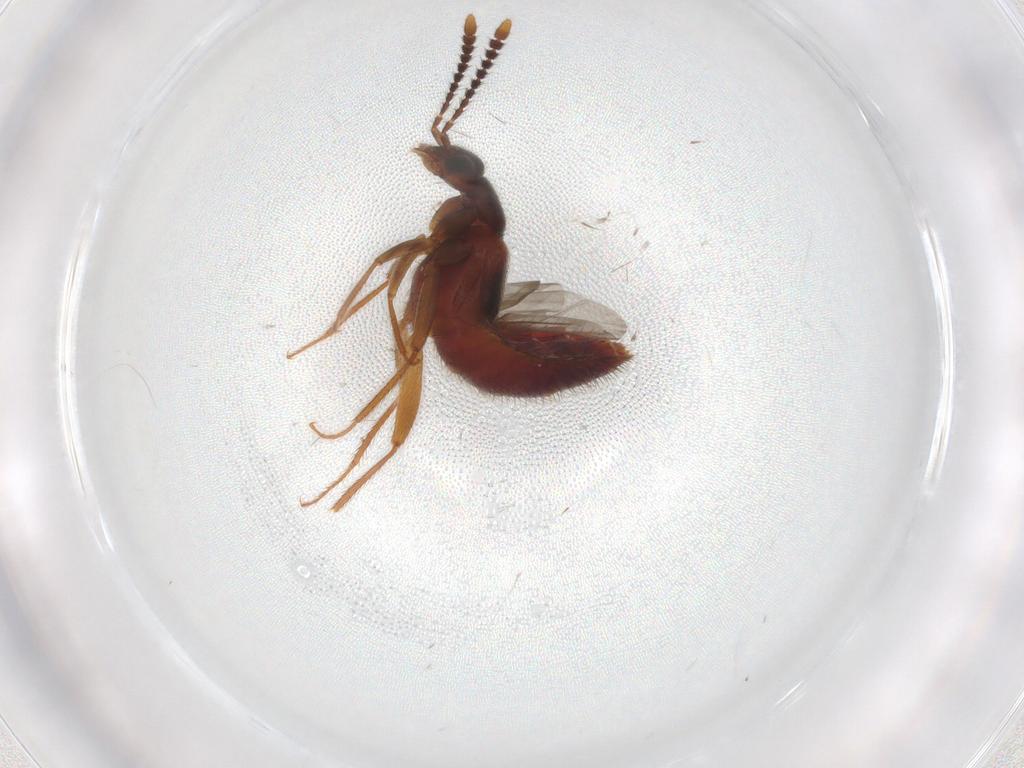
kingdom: Animalia
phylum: Arthropoda
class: Insecta
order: Coleoptera
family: Staphylinidae
